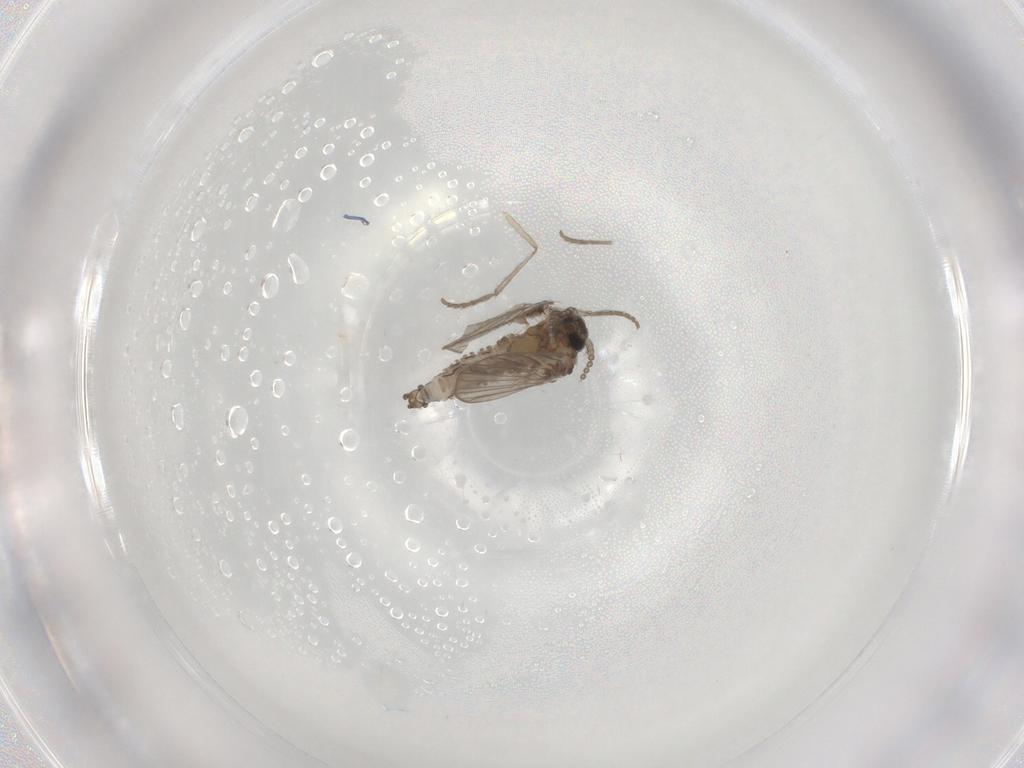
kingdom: Animalia
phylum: Arthropoda
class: Insecta
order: Diptera
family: Psychodidae
